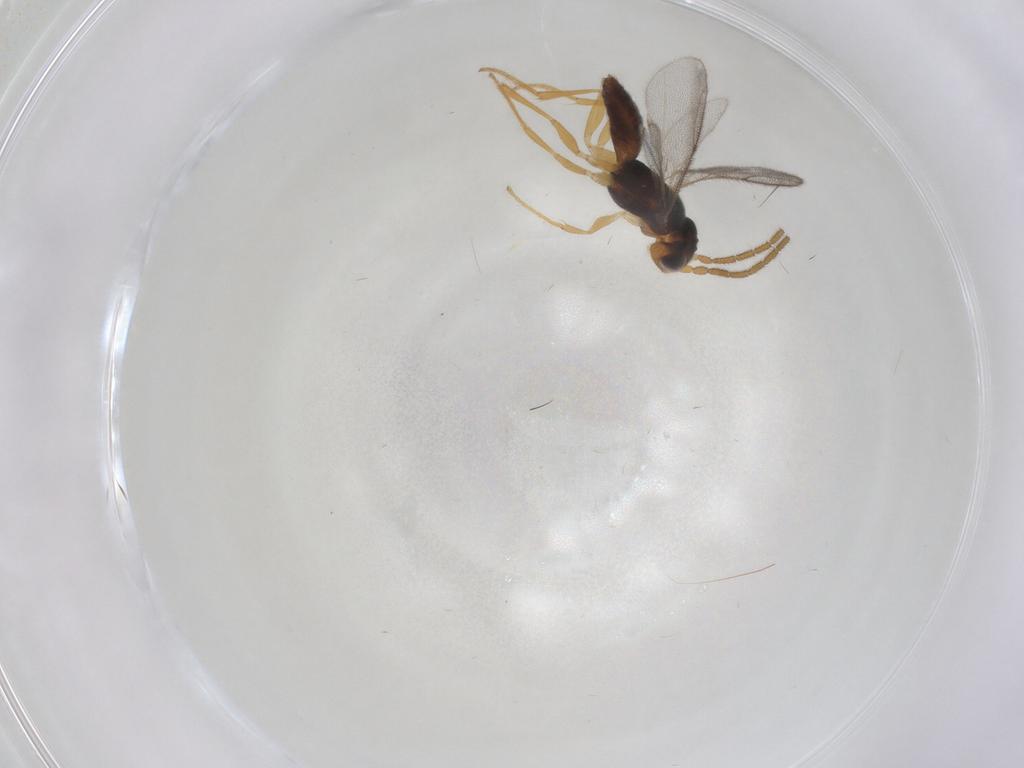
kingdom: Animalia
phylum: Arthropoda
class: Insecta
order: Hymenoptera
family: Dryinidae
